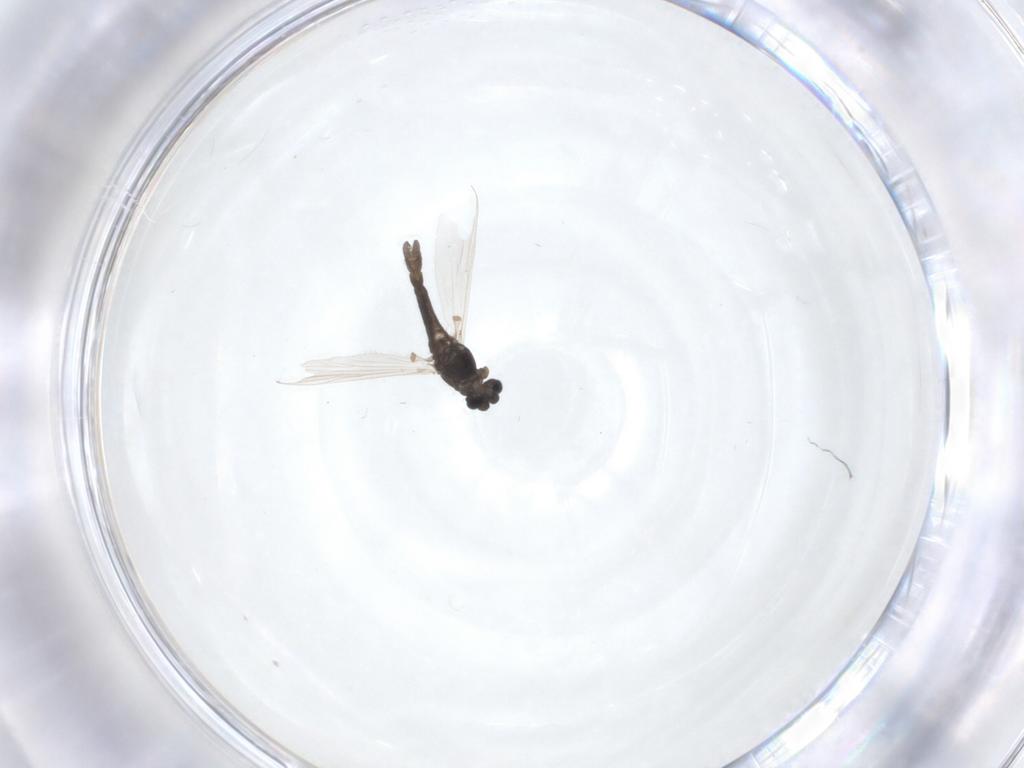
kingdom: Animalia
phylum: Arthropoda
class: Insecta
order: Diptera
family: Chironomidae
